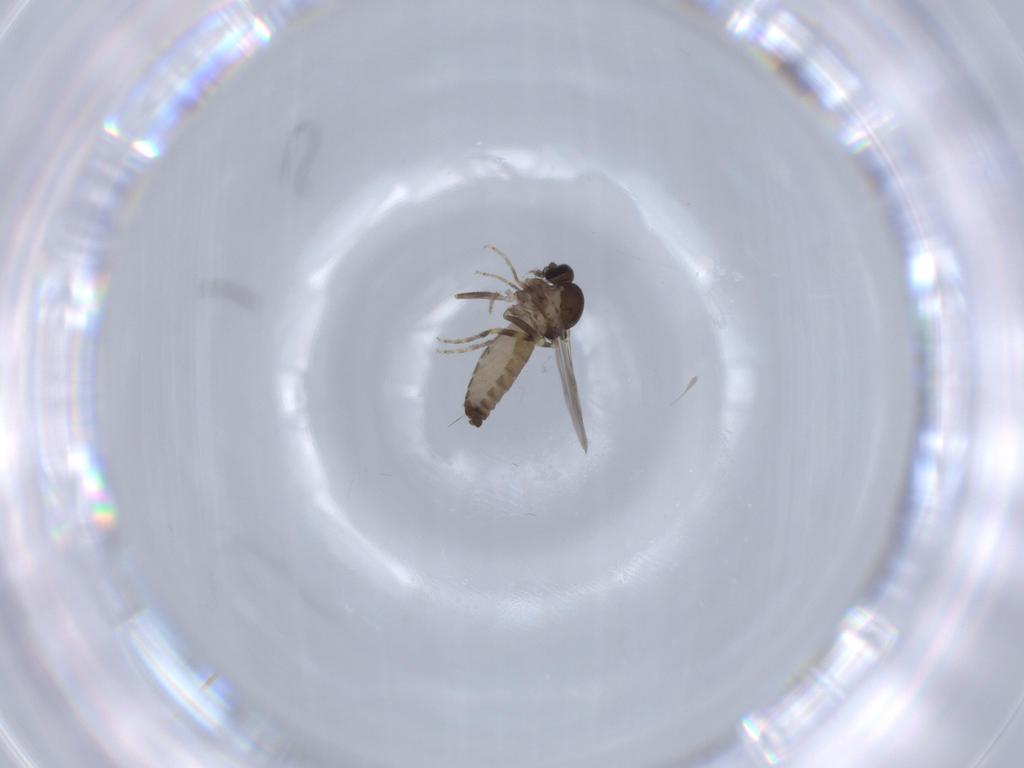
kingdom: Animalia
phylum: Arthropoda
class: Insecta
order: Diptera
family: Ceratopogonidae
